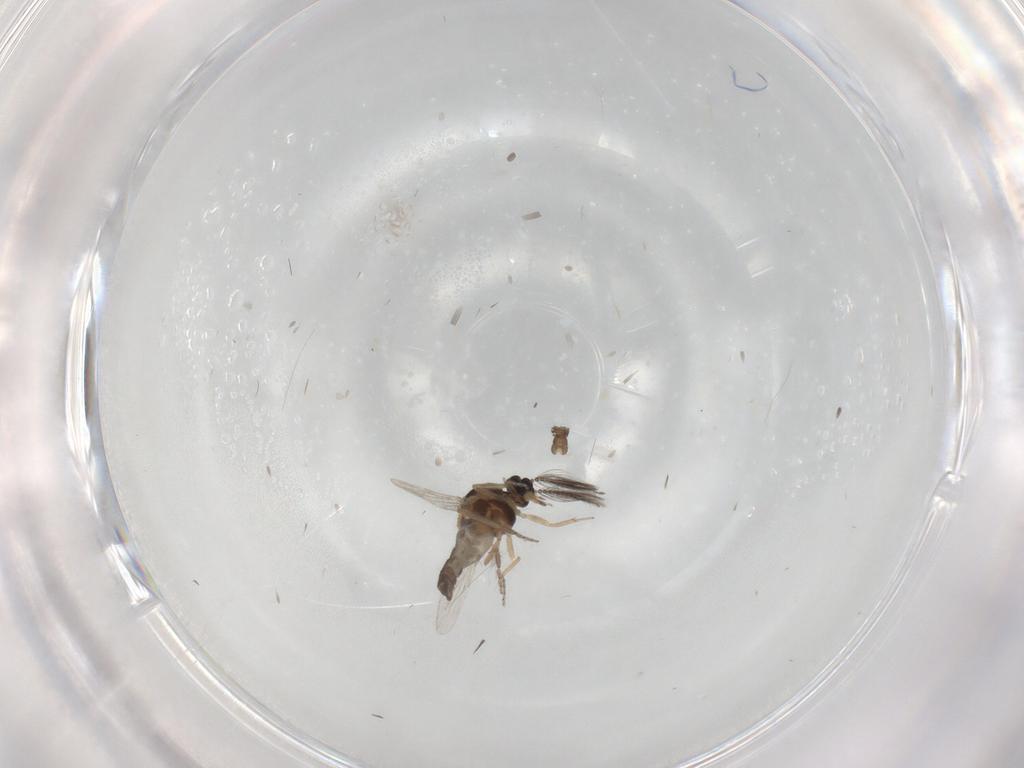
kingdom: Animalia
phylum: Arthropoda
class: Insecta
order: Diptera
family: Ceratopogonidae
